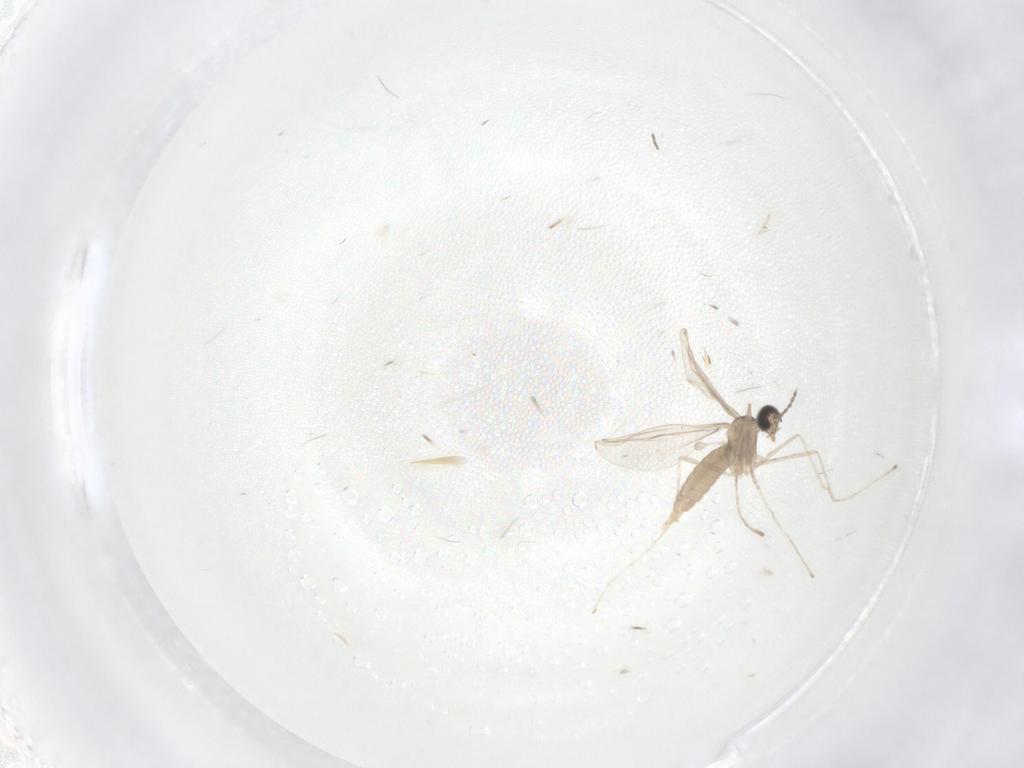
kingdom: Animalia
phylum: Arthropoda
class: Insecta
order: Diptera
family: Cecidomyiidae
